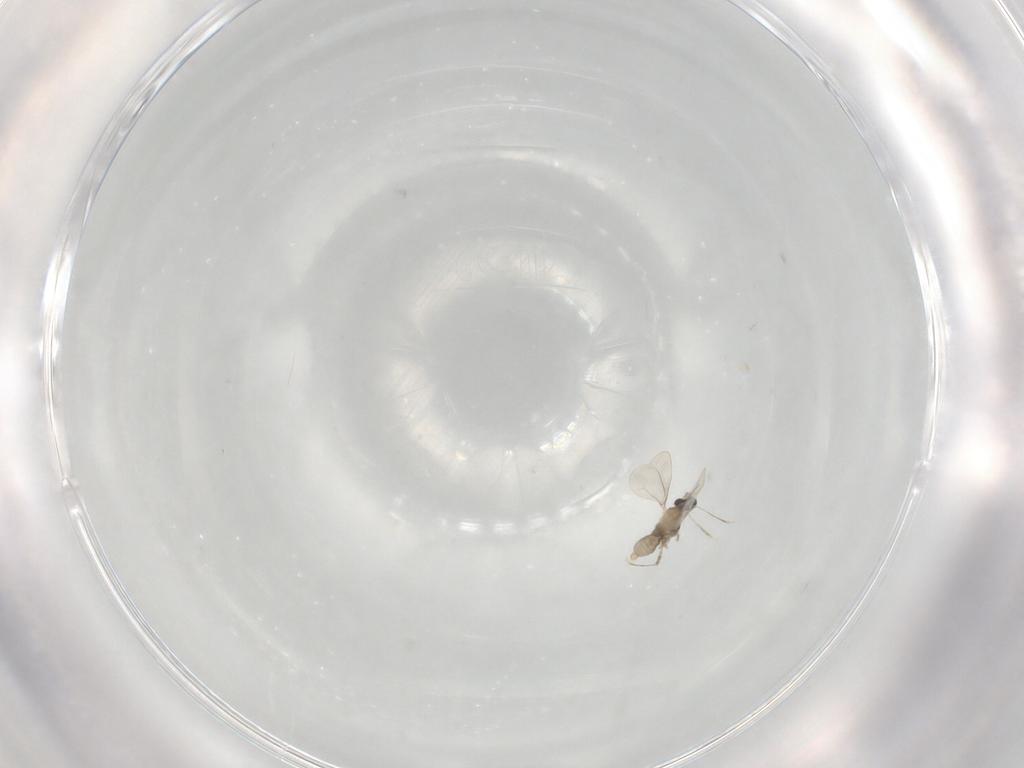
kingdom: Animalia
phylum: Arthropoda
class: Insecta
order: Diptera
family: Cecidomyiidae
